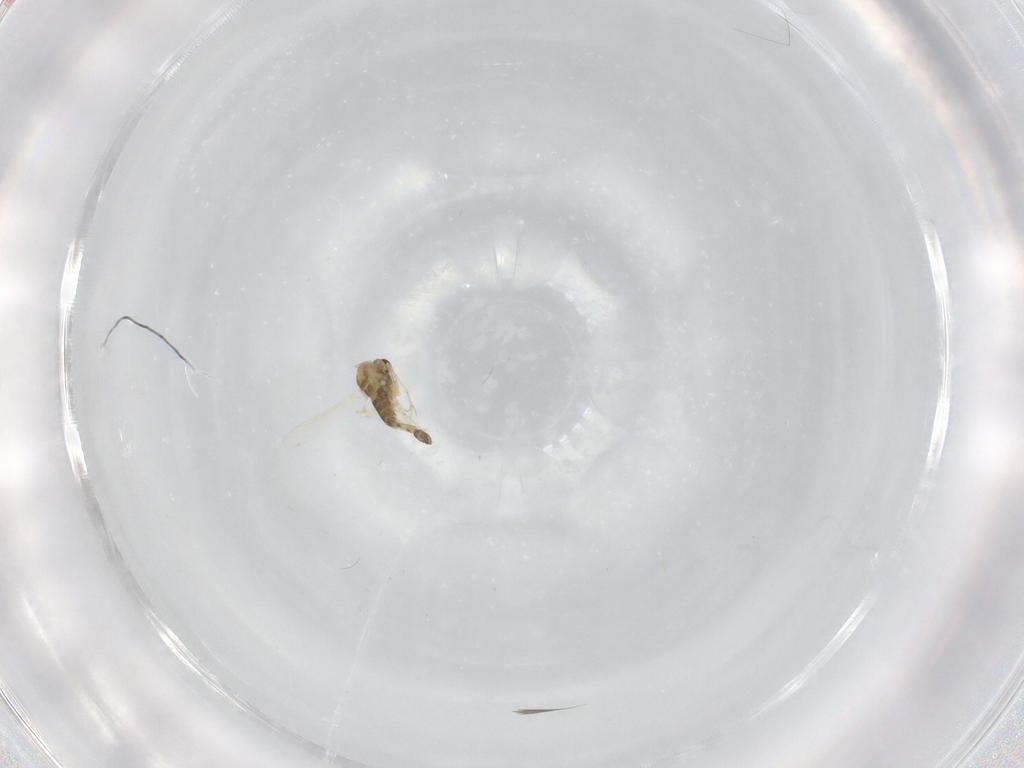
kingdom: Animalia
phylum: Arthropoda
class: Insecta
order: Diptera
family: Chironomidae
